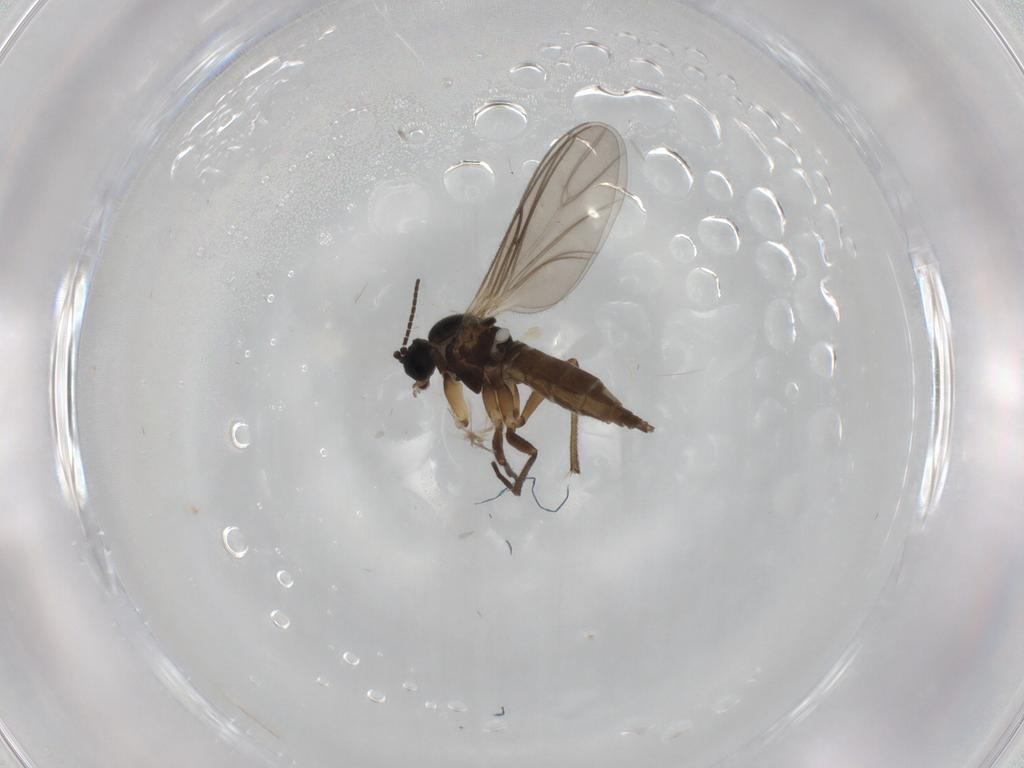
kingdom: Animalia
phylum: Arthropoda
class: Insecta
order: Diptera
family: Sciaridae
